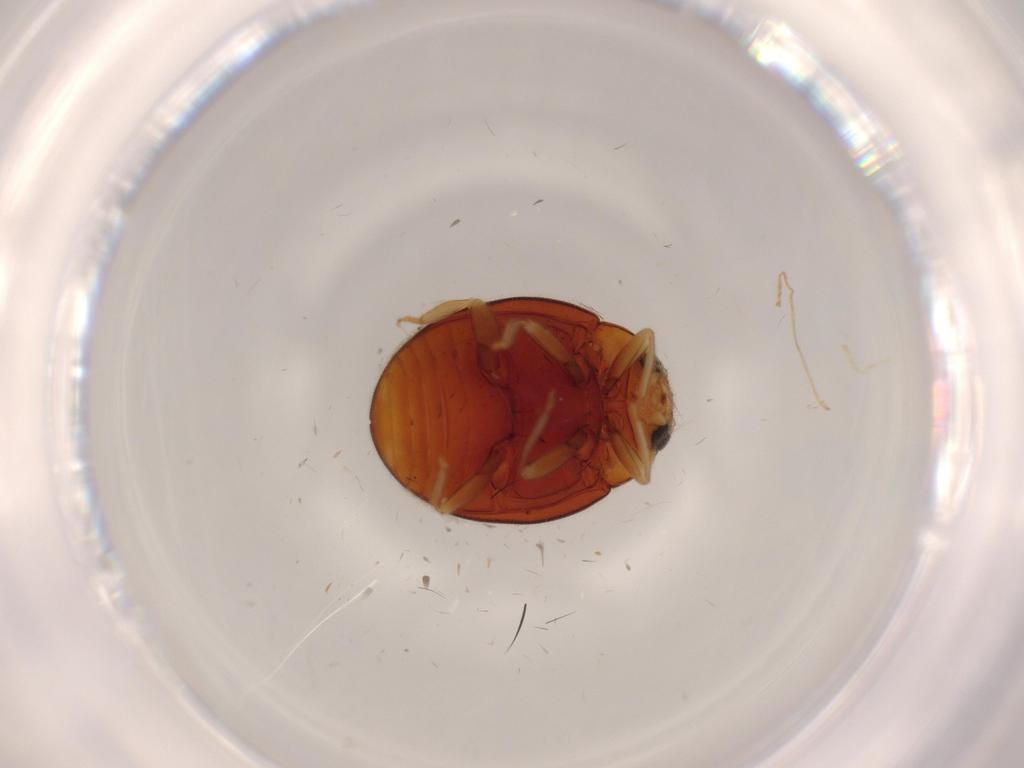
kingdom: Animalia
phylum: Arthropoda
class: Insecta
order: Coleoptera
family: Coccinellidae
